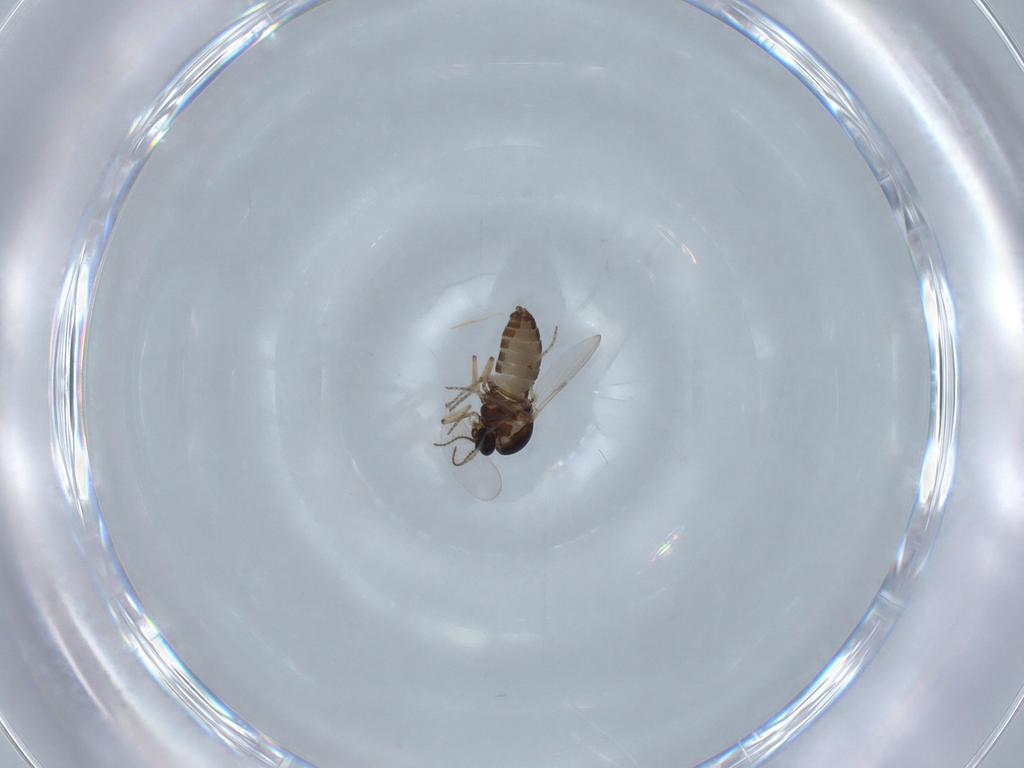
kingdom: Animalia
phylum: Arthropoda
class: Insecta
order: Diptera
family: Ceratopogonidae
